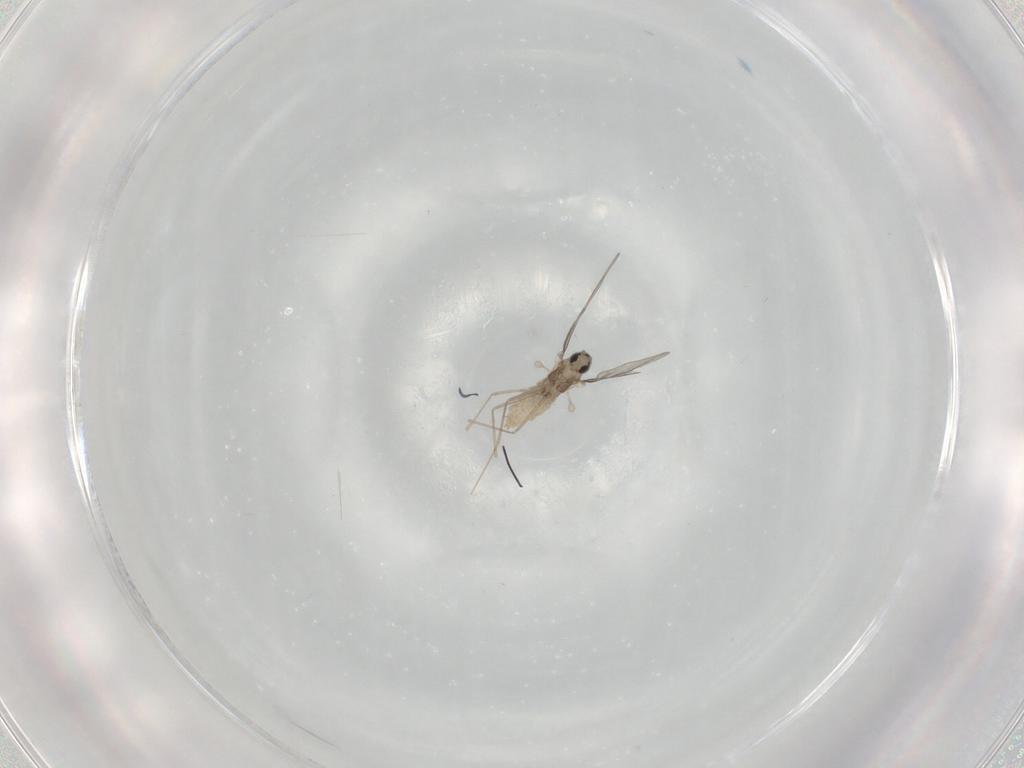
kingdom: Animalia
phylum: Arthropoda
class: Insecta
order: Diptera
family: Cecidomyiidae
